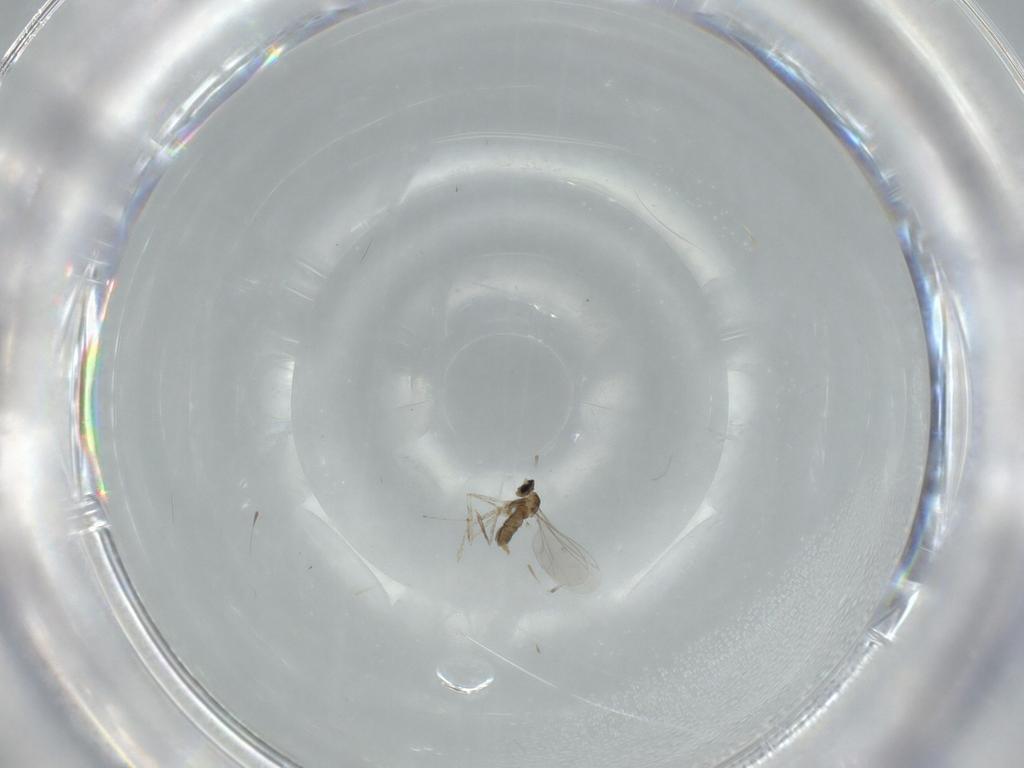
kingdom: Animalia
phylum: Arthropoda
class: Insecta
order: Diptera
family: Cecidomyiidae
